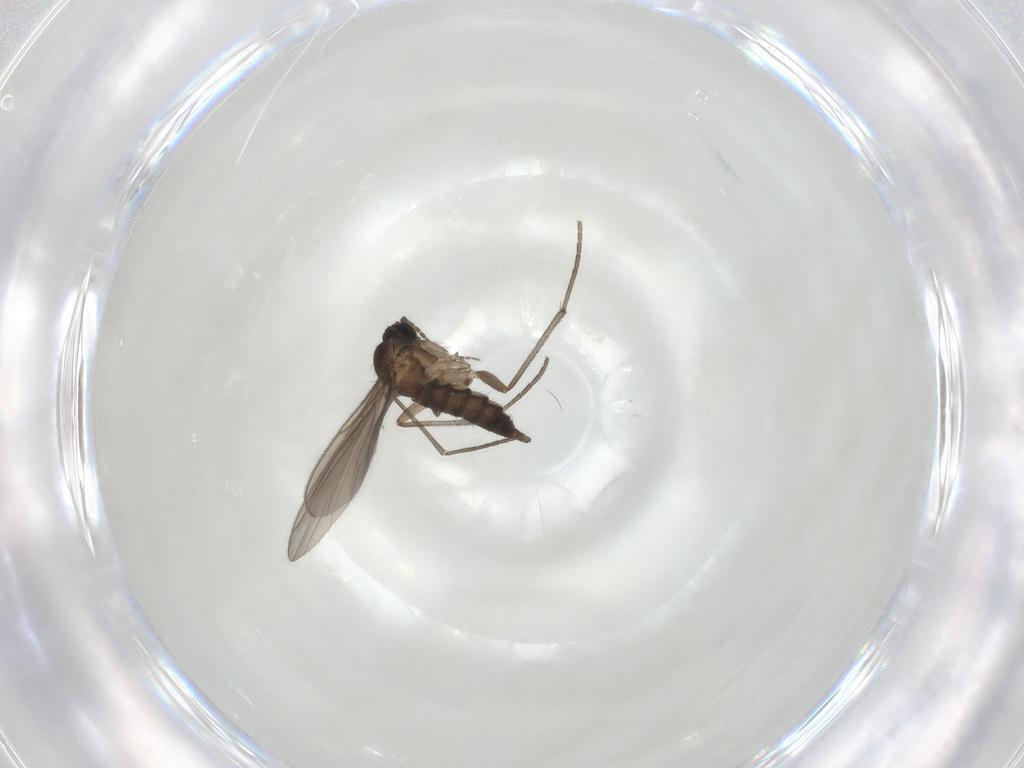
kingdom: Animalia
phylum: Arthropoda
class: Insecta
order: Diptera
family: Sciaridae
